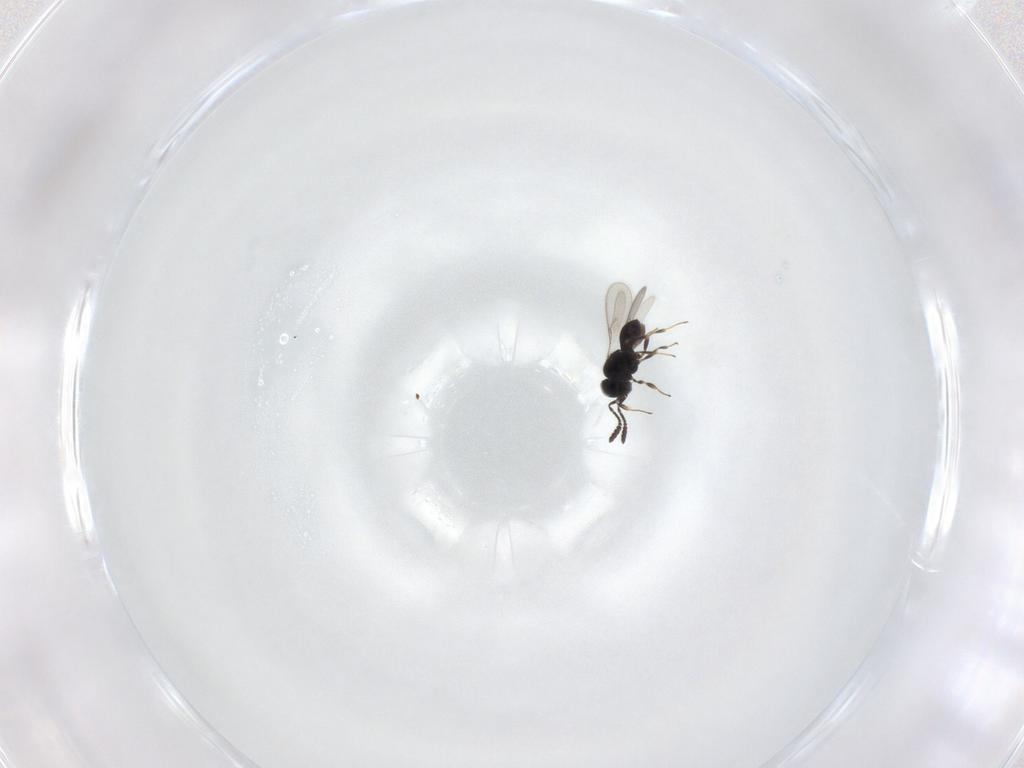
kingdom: Animalia
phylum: Arthropoda
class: Insecta
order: Hymenoptera
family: Scelionidae
